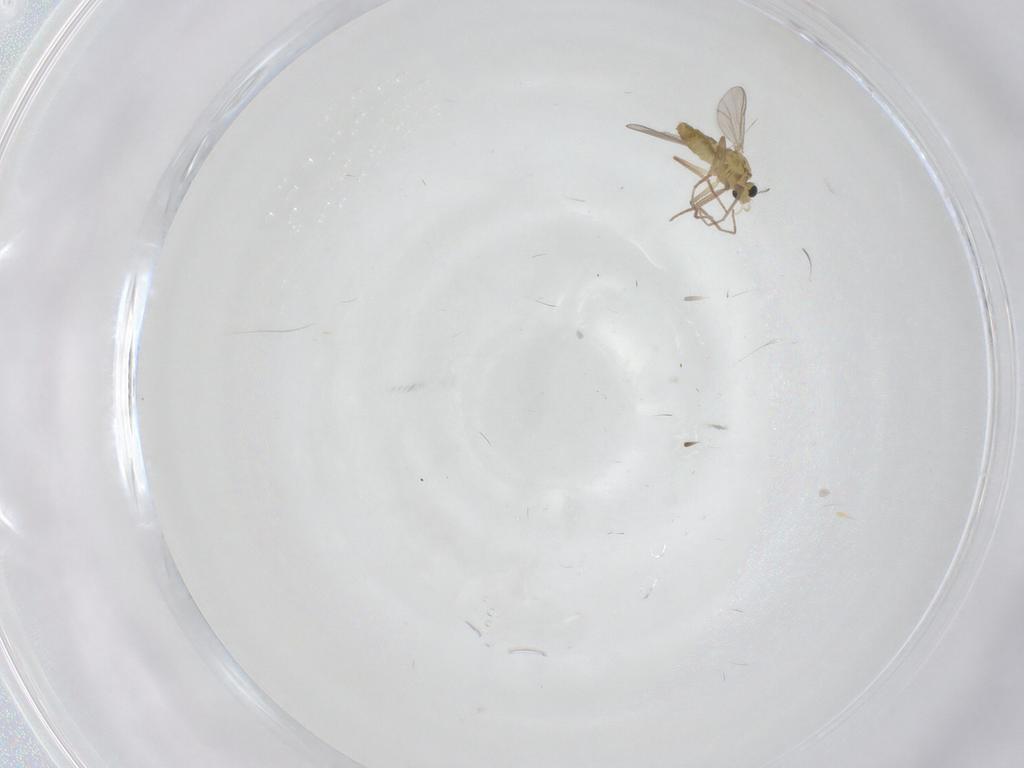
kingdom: Animalia
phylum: Arthropoda
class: Insecta
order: Diptera
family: Chironomidae
